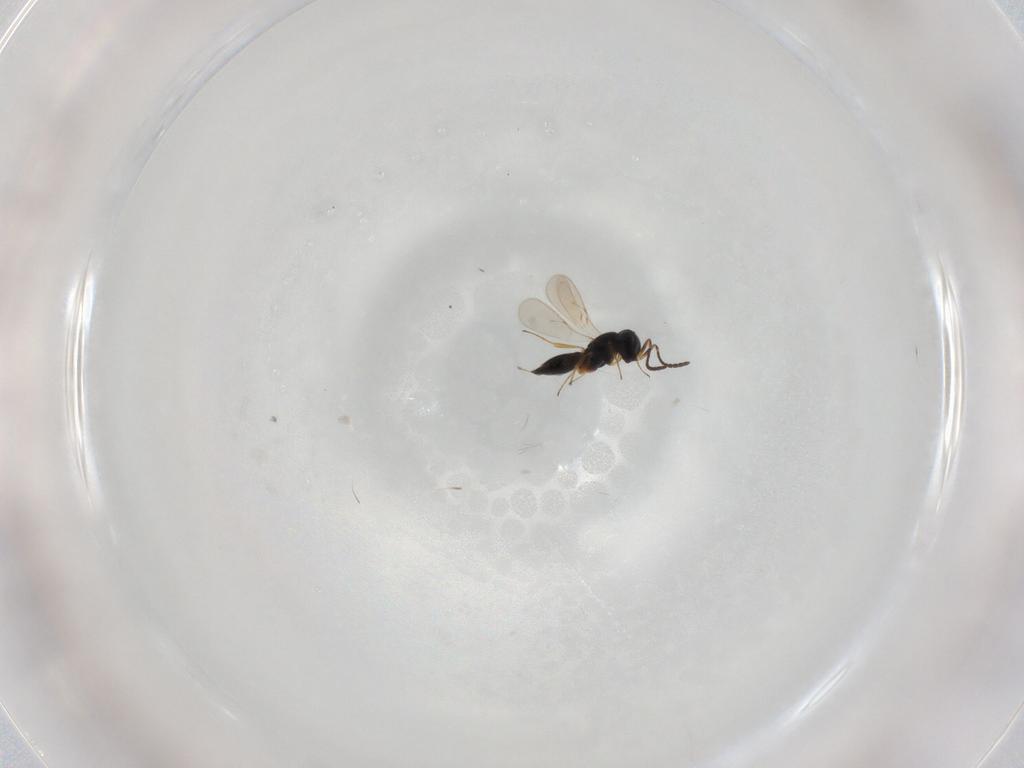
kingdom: Animalia
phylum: Arthropoda
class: Insecta
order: Hymenoptera
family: Scelionidae
